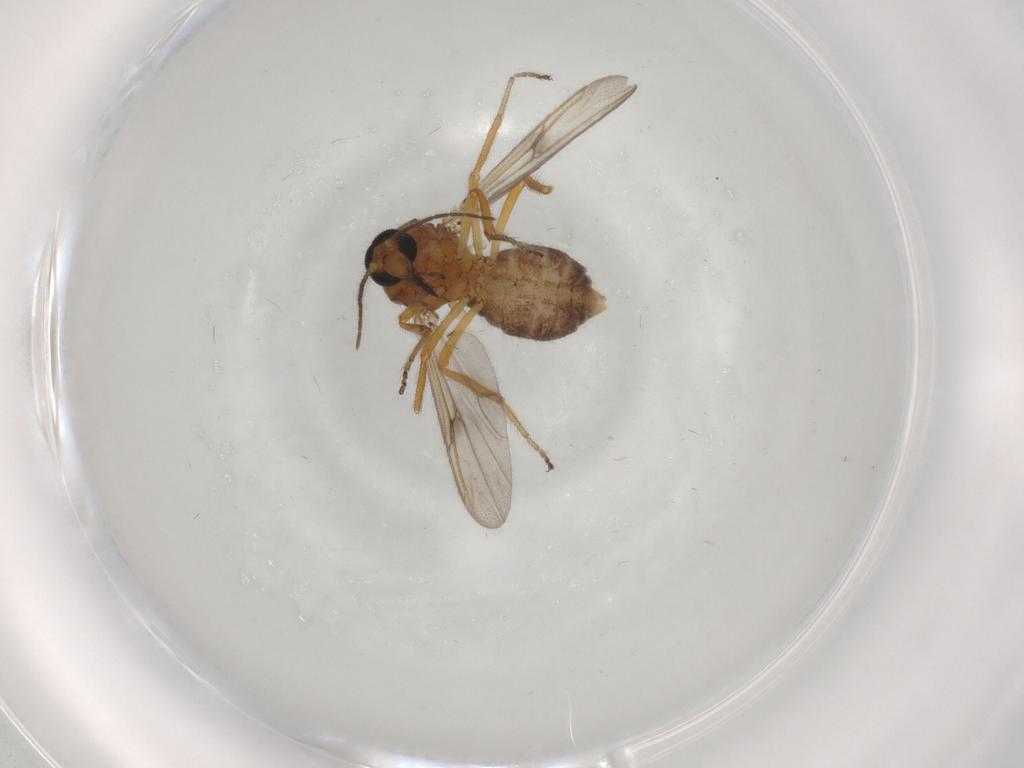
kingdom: Animalia
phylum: Arthropoda
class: Insecta
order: Diptera
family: Ceratopogonidae
